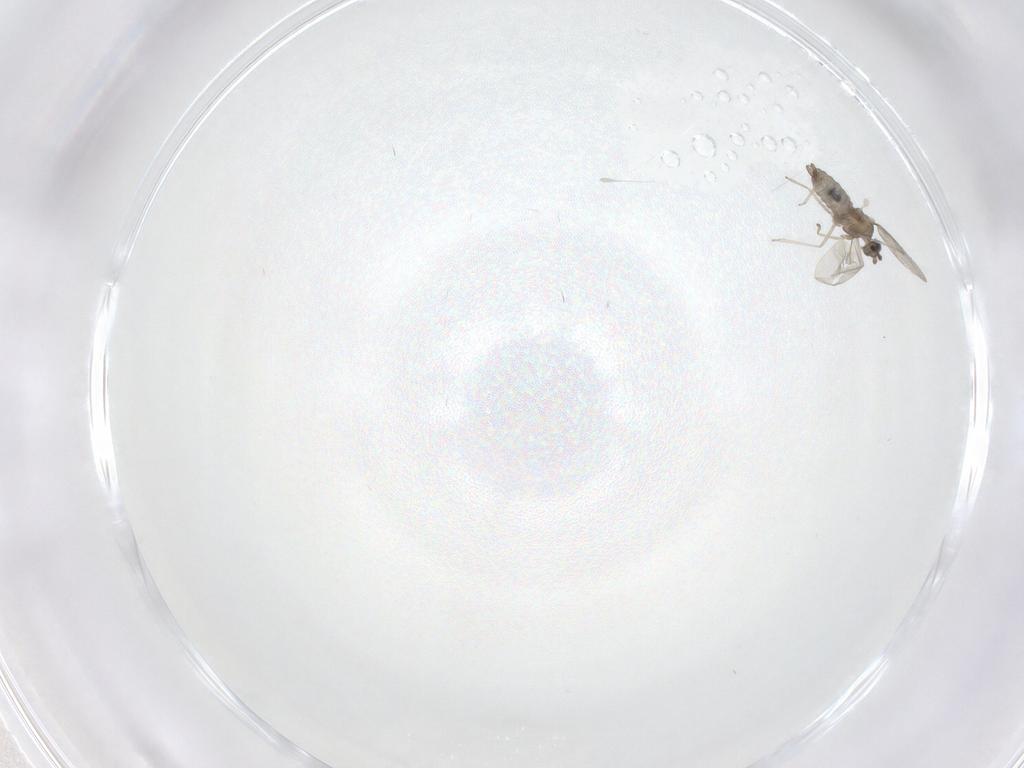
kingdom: Animalia
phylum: Arthropoda
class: Insecta
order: Diptera
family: Cecidomyiidae
